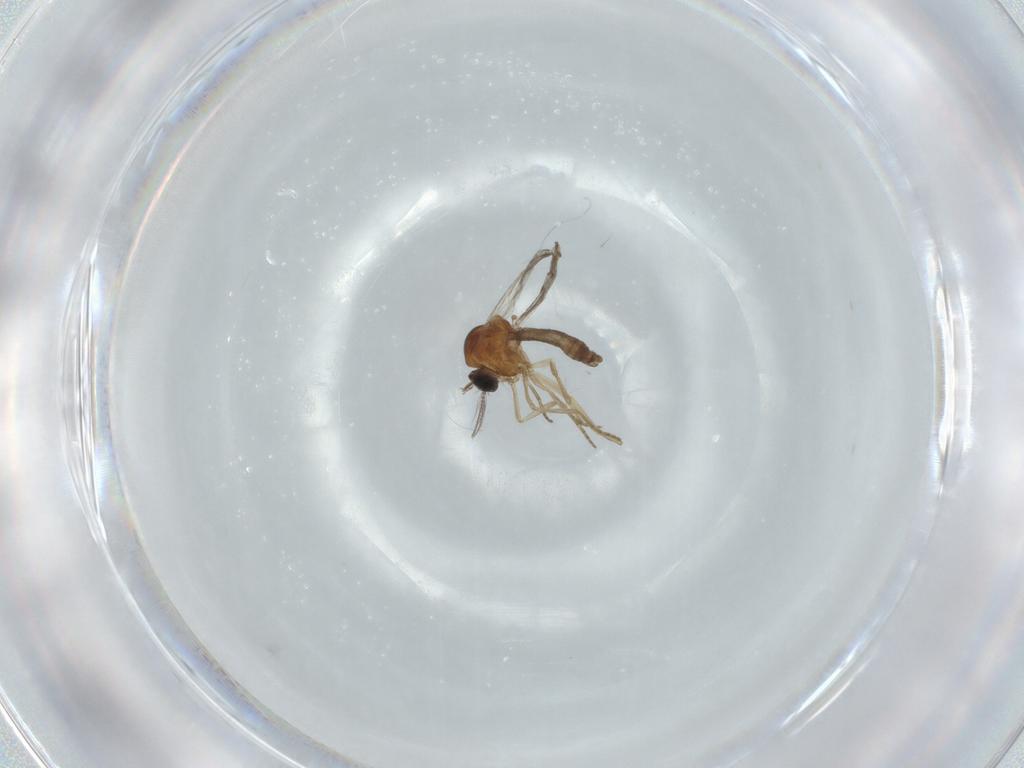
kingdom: Animalia
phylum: Arthropoda
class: Insecta
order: Diptera
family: Ceratopogonidae
